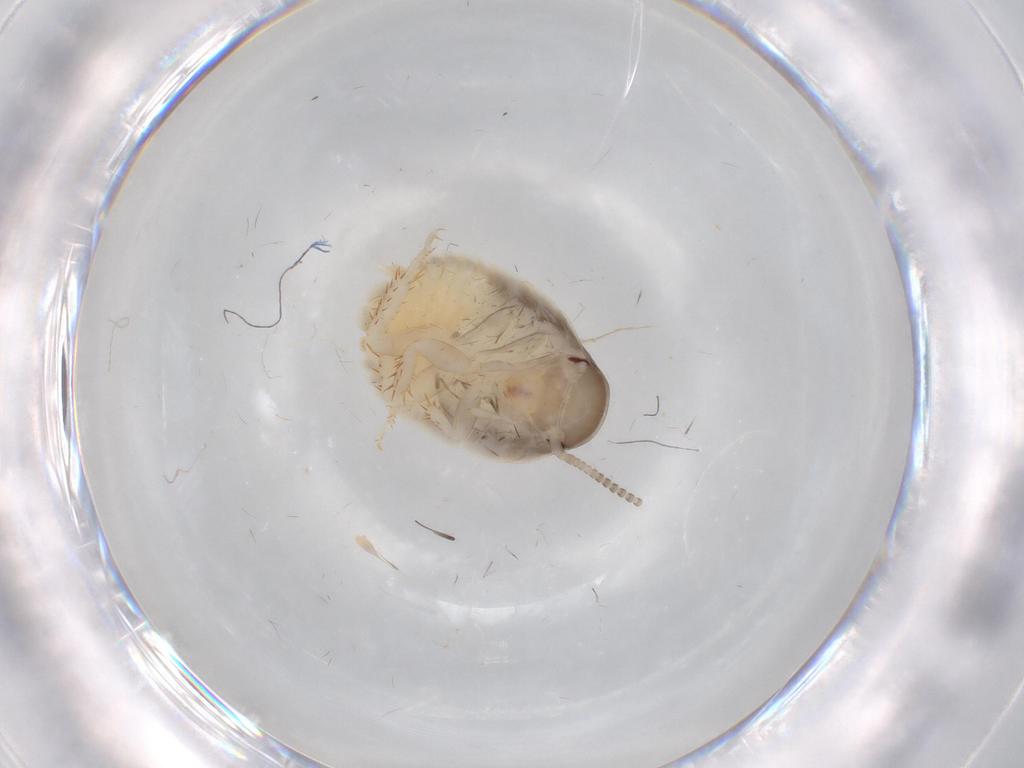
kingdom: Animalia
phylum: Arthropoda
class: Insecta
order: Blattodea
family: Blaberidae
